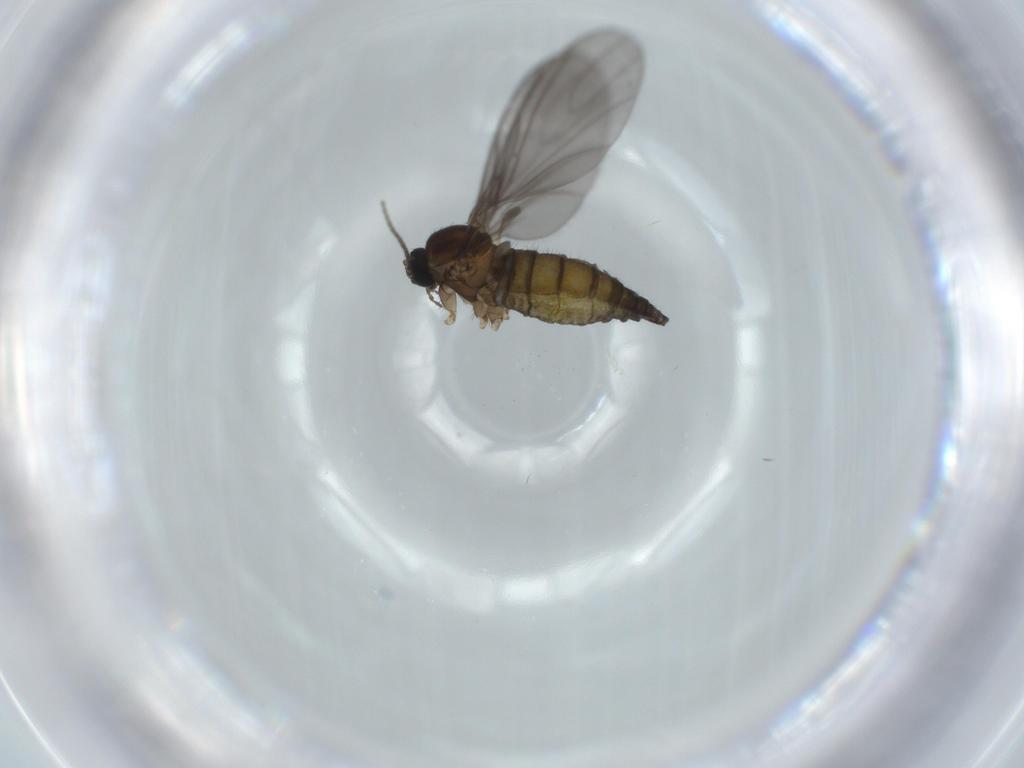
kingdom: Animalia
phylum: Arthropoda
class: Insecta
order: Diptera
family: Sciaridae
